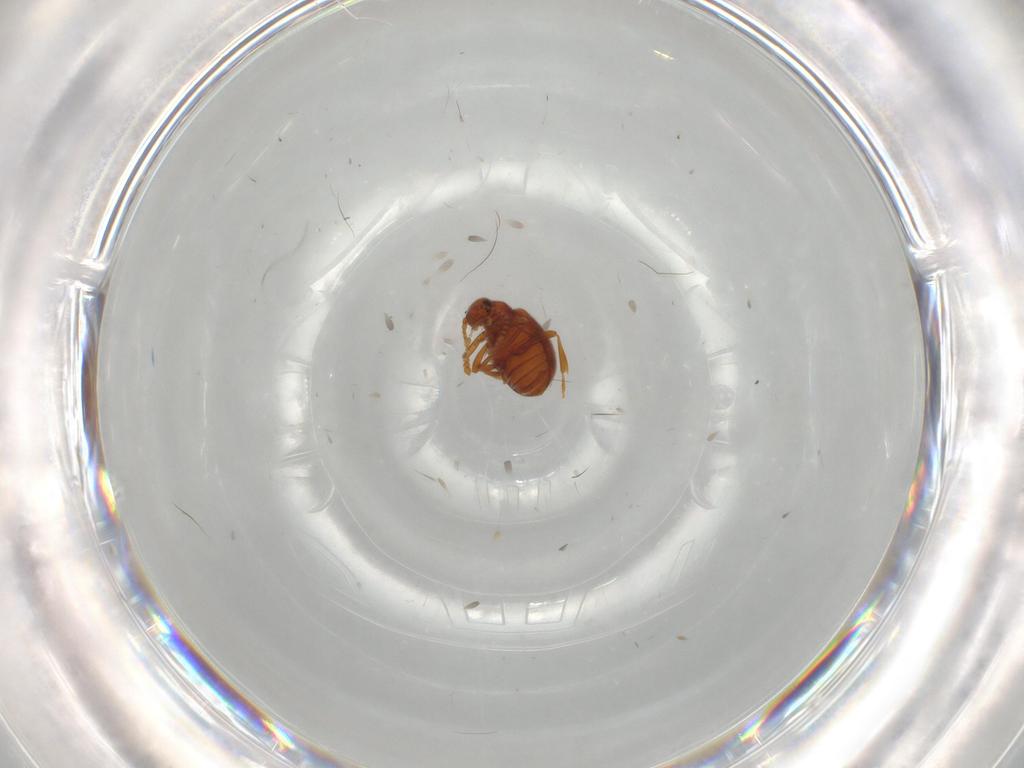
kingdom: Animalia
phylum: Arthropoda
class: Insecta
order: Coleoptera
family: Aderidae
